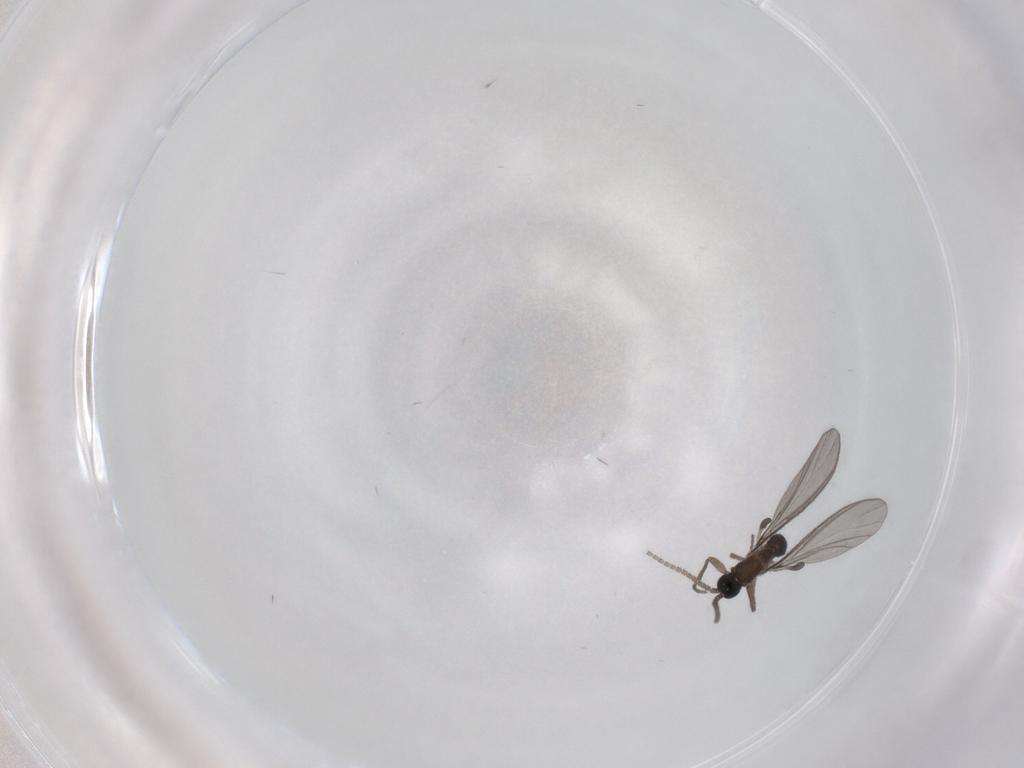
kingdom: Animalia
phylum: Arthropoda
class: Insecta
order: Diptera
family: Sciaridae
